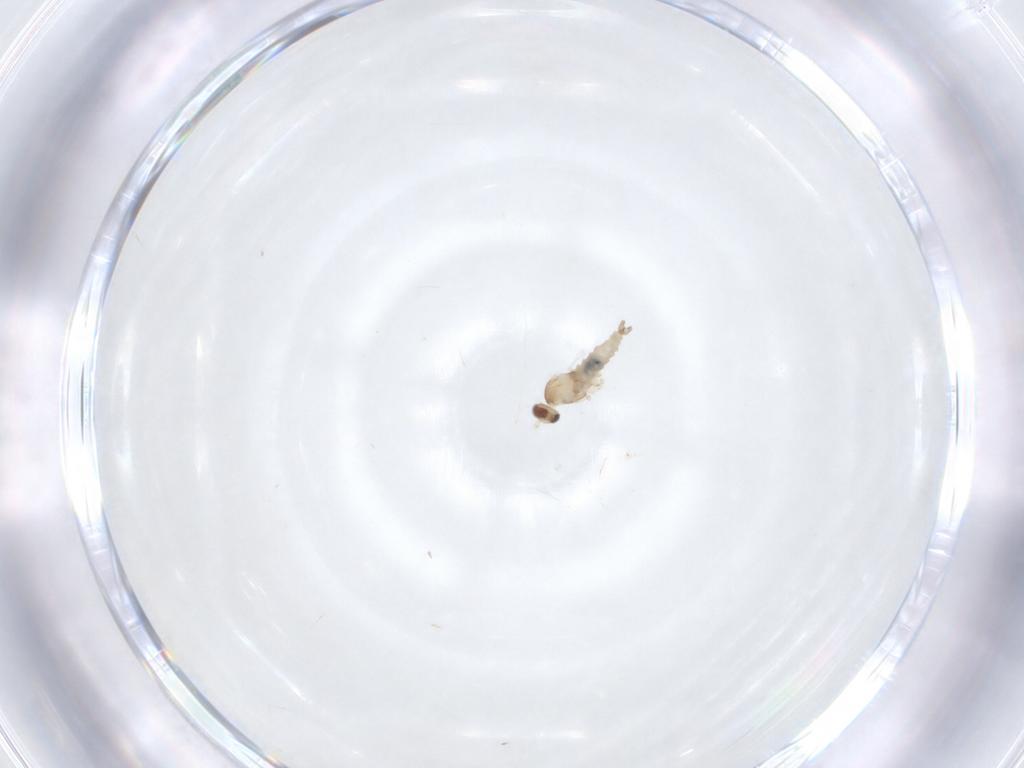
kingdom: Animalia
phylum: Arthropoda
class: Insecta
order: Diptera
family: Cecidomyiidae
